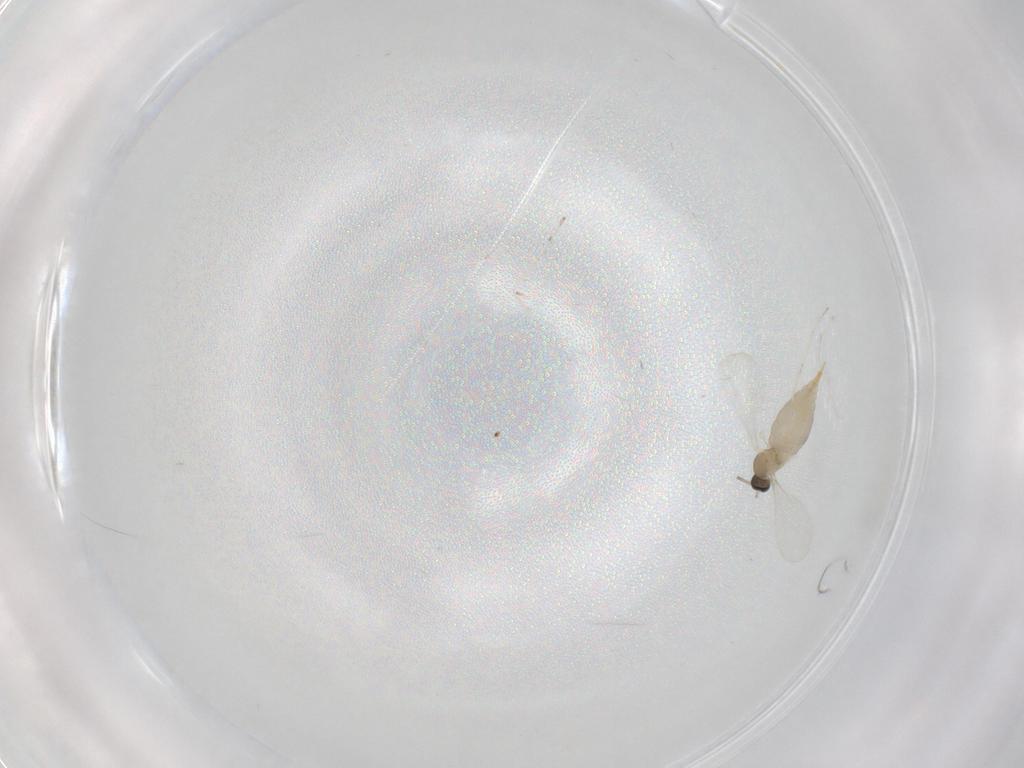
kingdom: Animalia
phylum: Arthropoda
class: Insecta
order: Diptera
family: Cecidomyiidae
